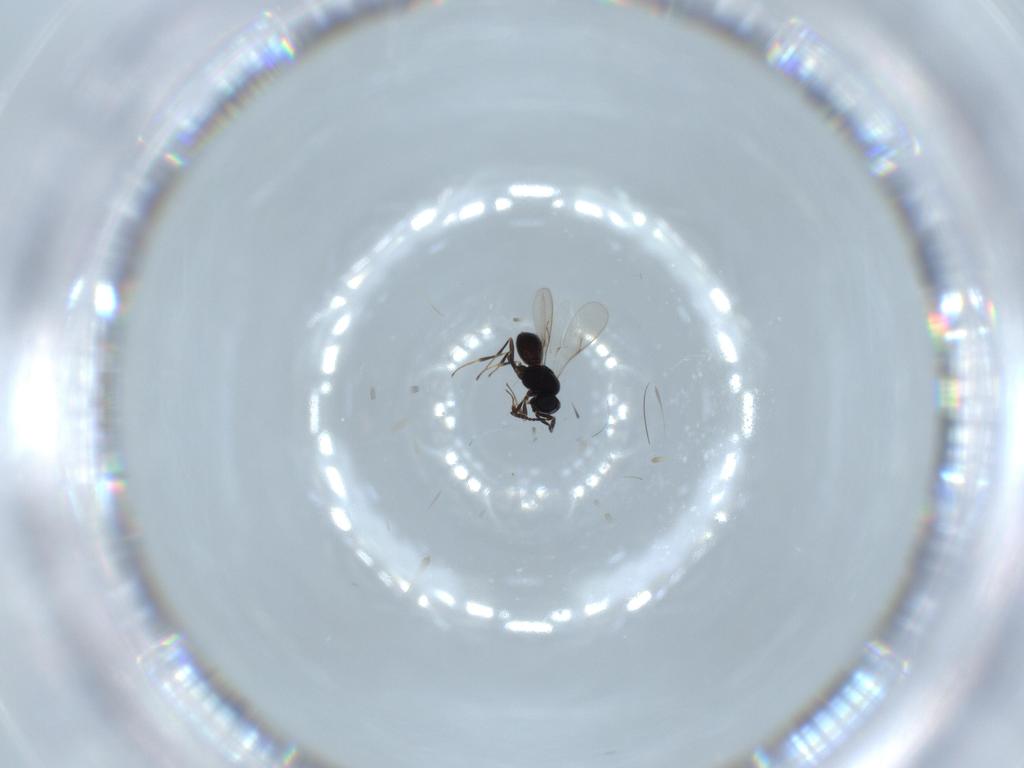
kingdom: Animalia
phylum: Arthropoda
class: Insecta
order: Hymenoptera
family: Scelionidae
